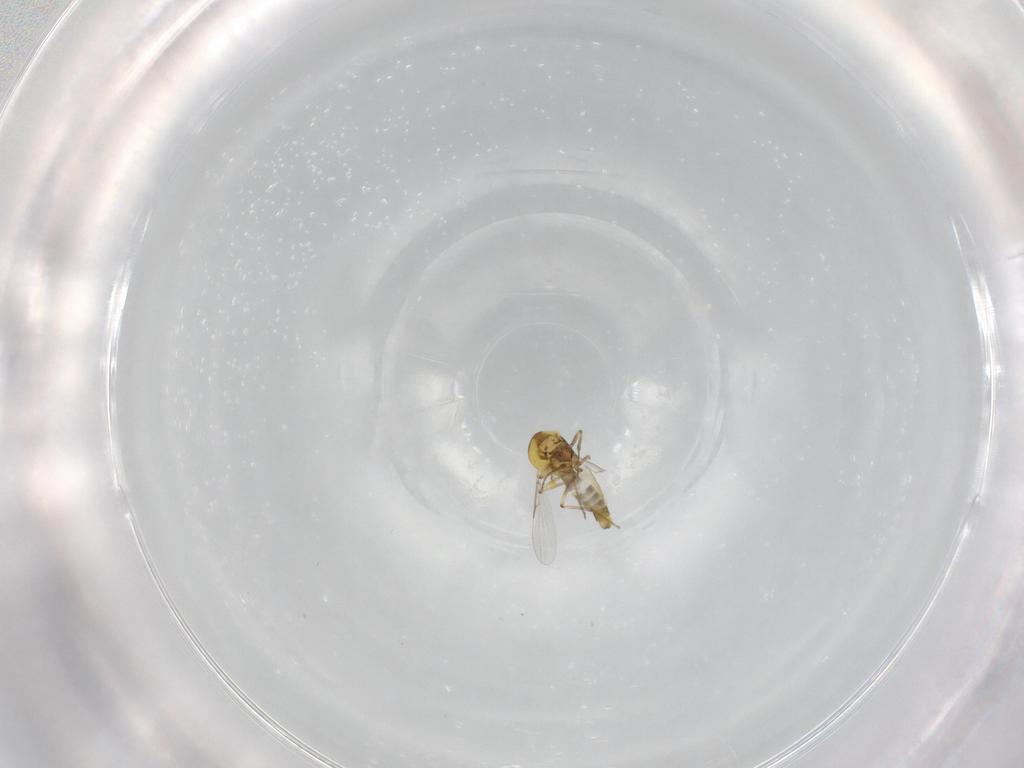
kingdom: Animalia
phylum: Arthropoda
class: Insecta
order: Diptera
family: Ceratopogonidae
